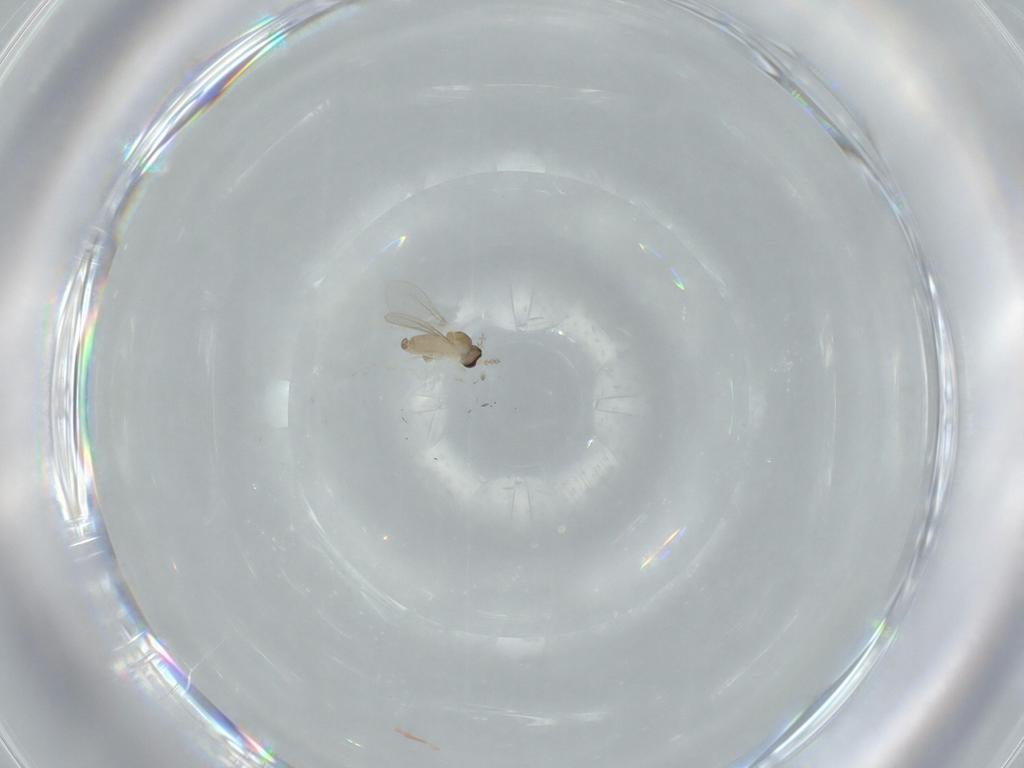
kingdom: Animalia
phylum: Arthropoda
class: Insecta
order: Diptera
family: Cecidomyiidae
